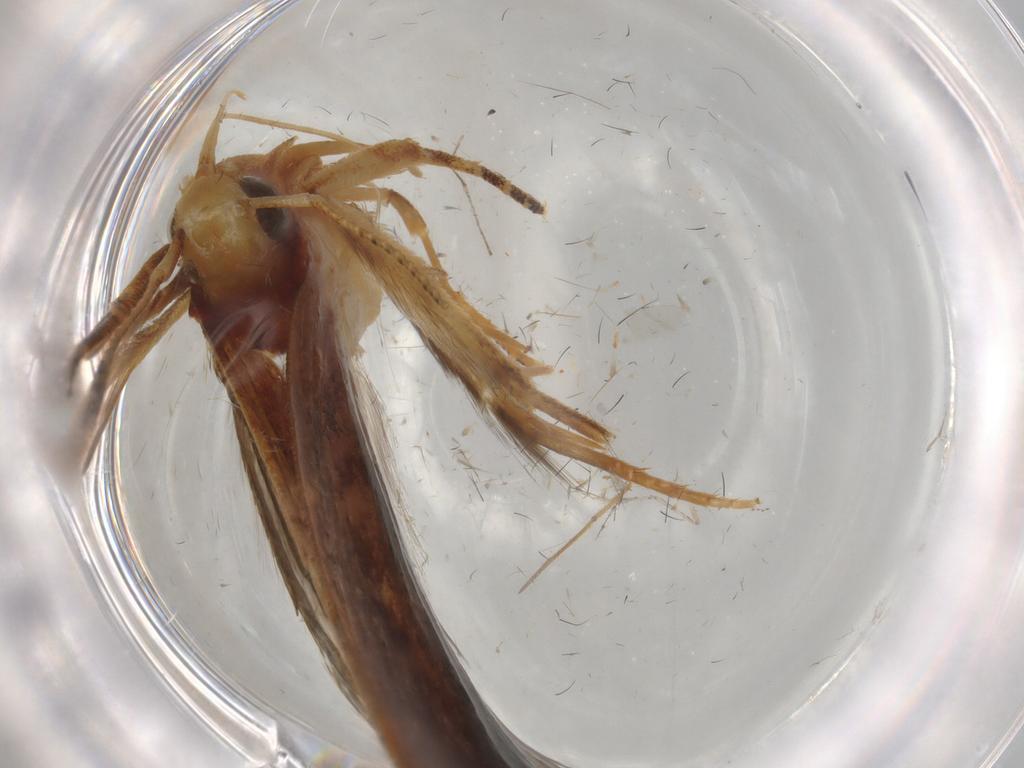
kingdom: Animalia
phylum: Arthropoda
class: Insecta
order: Lepidoptera
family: Gelechiidae
